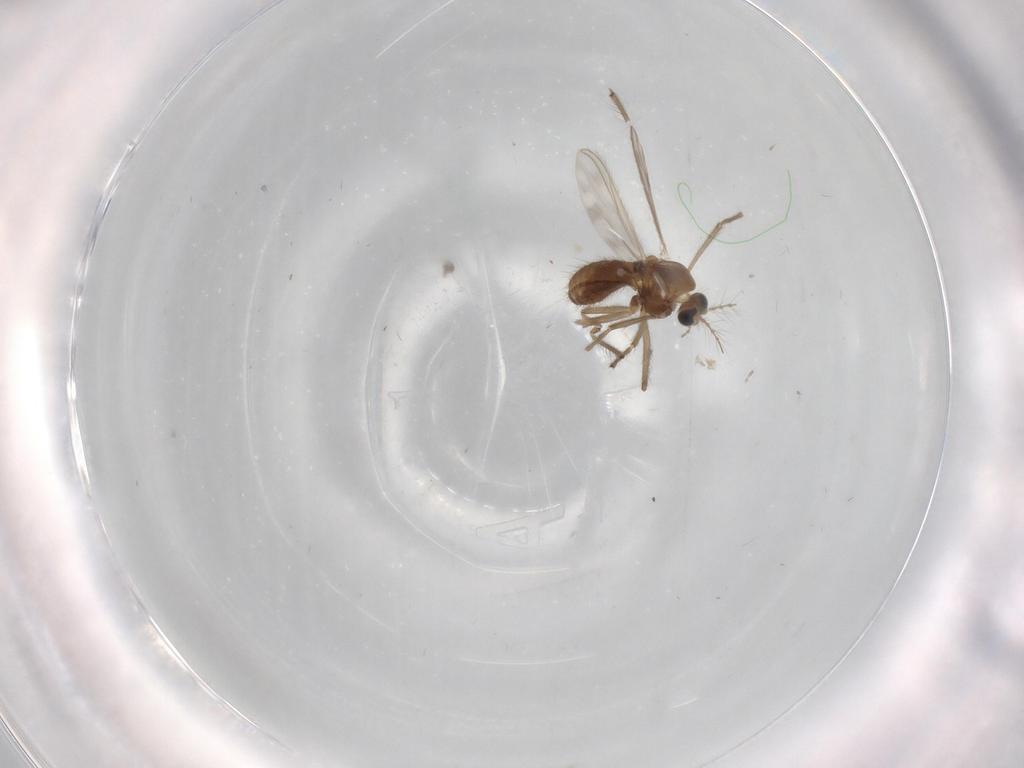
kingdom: Animalia
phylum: Arthropoda
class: Insecta
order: Diptera
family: Chironomidae
